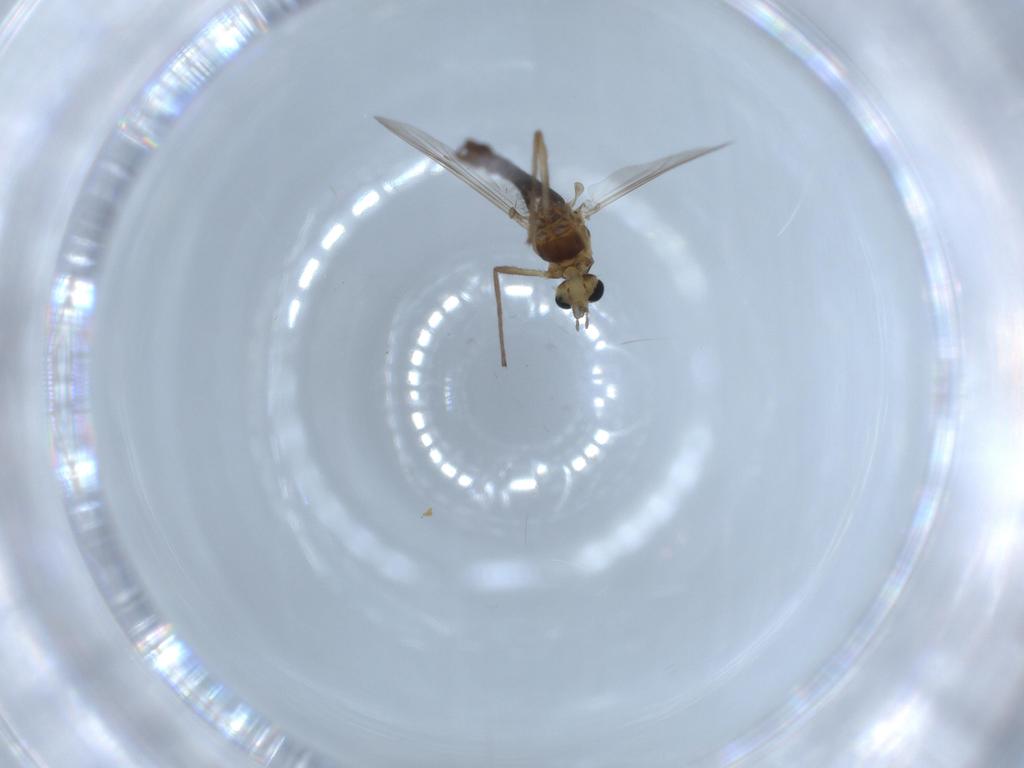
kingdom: Animalia
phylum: Arthropoda
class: Insecta
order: Diptera
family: Chironomidae
